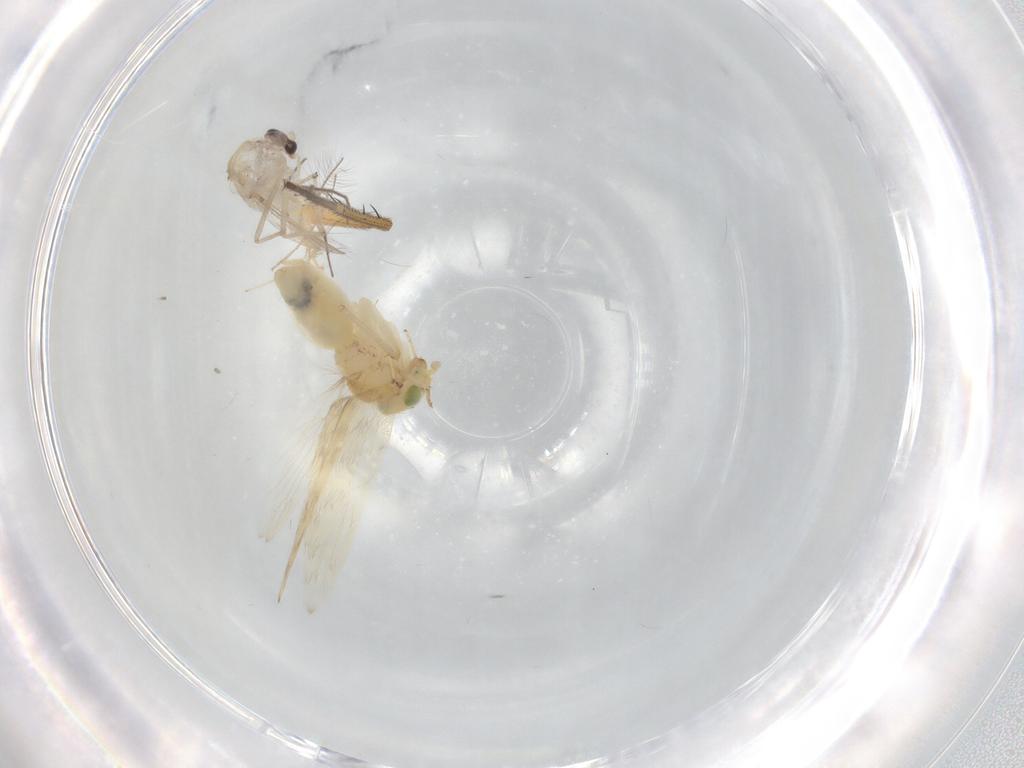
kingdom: Animalia
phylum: Arthropoda
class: Insecta
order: Diptera
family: Chironomidae
